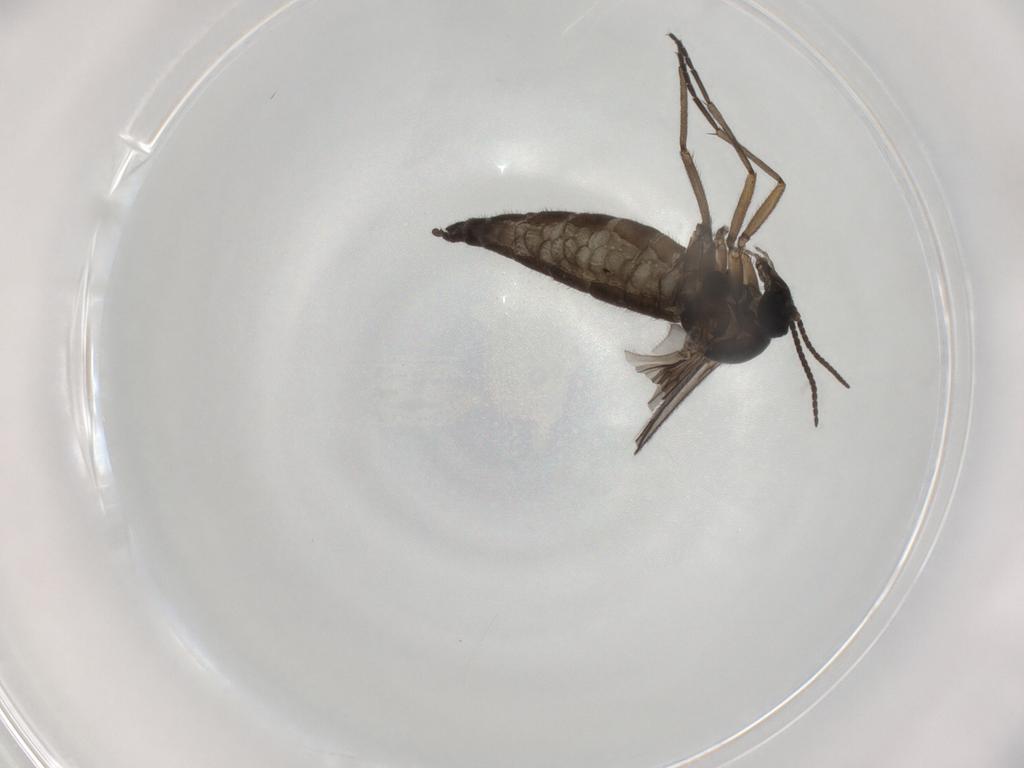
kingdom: Animalia
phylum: Arthropoda
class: Insecta
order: Diptera
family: Sciaridae
